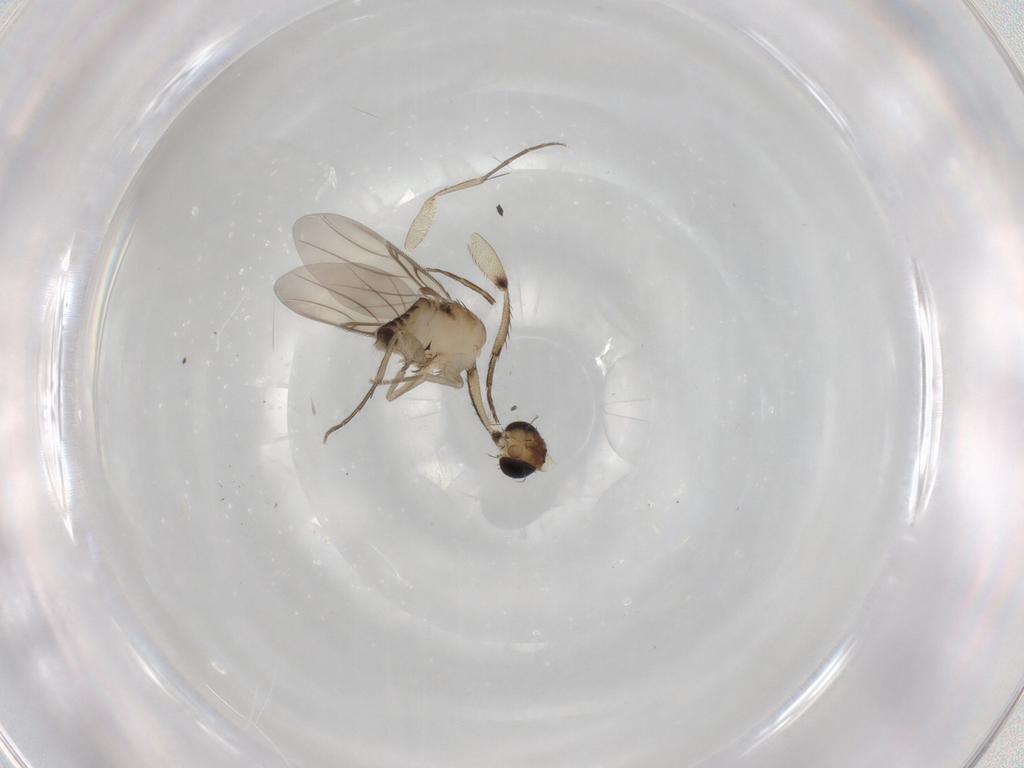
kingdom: Animalia
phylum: Arthropoda
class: Insecta
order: Diptera
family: Phoridae
